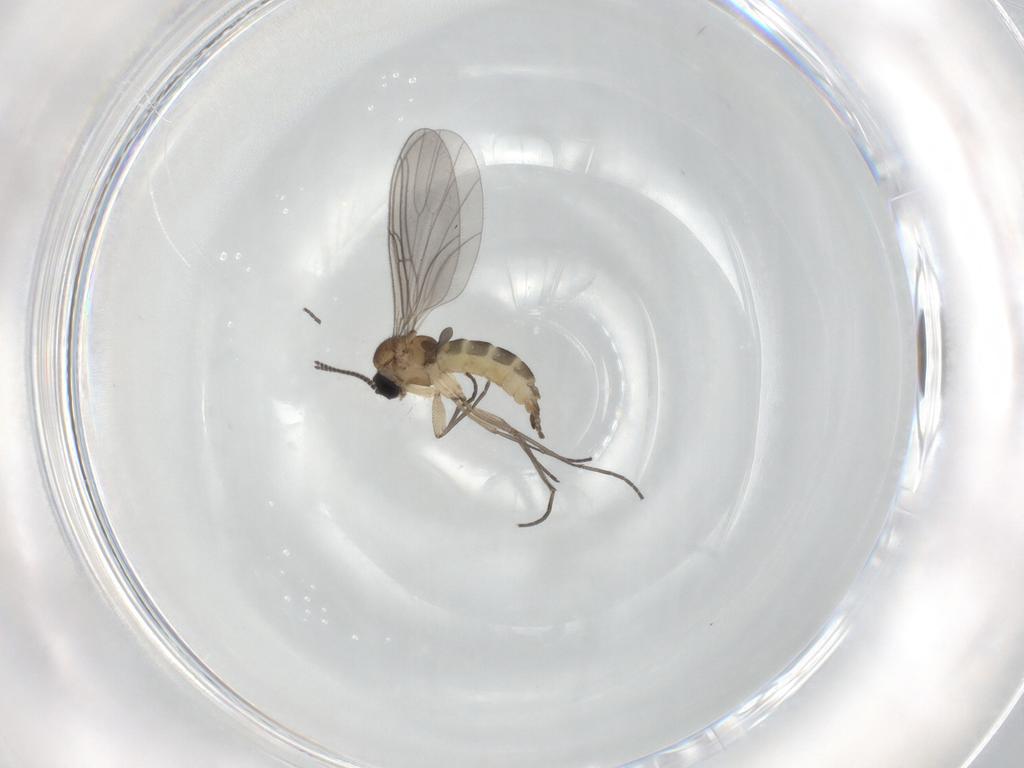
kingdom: Animalia
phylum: Arthropoda
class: Insecta
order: Diptera
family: Sciaridae
